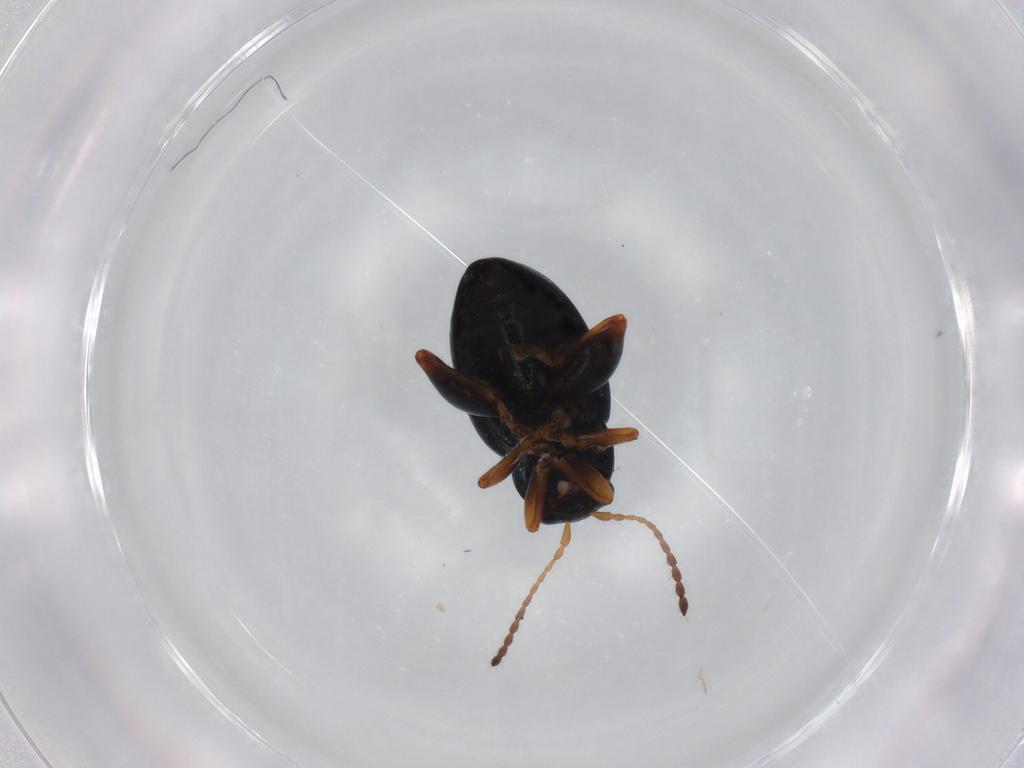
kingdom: Animalia
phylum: Arthropoda
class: Insecta
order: Coleoptera
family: Chrysomelidae
